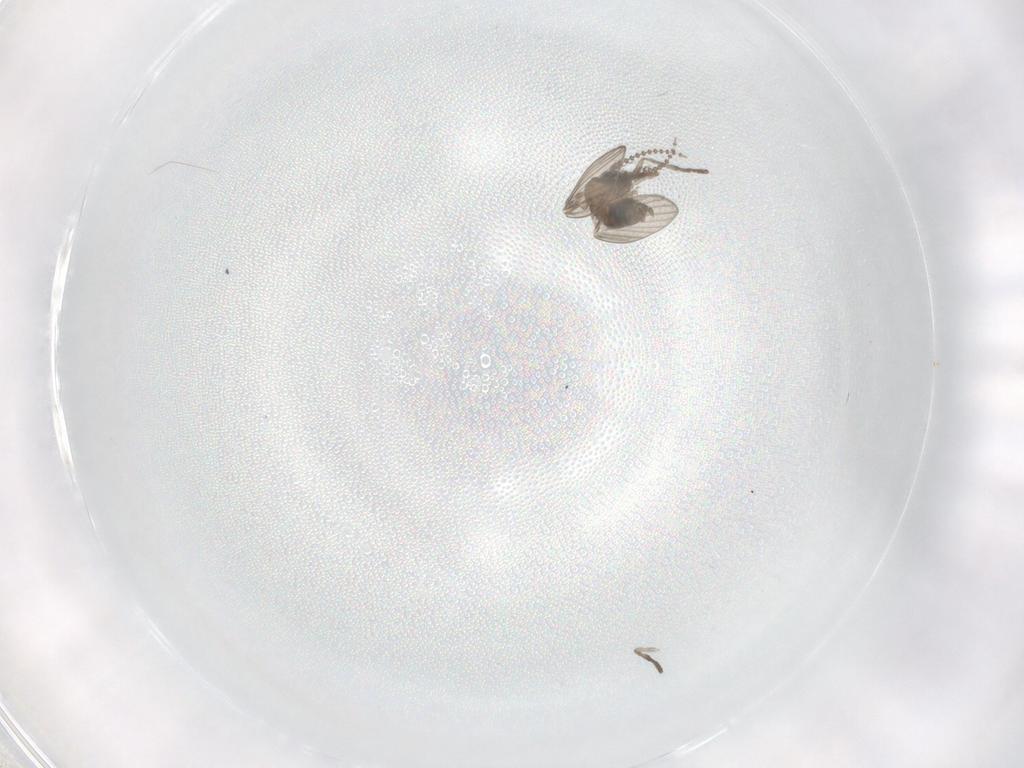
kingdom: Animalia
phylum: Arthropoda
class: Insecta
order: Diptera
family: Psychodidae
